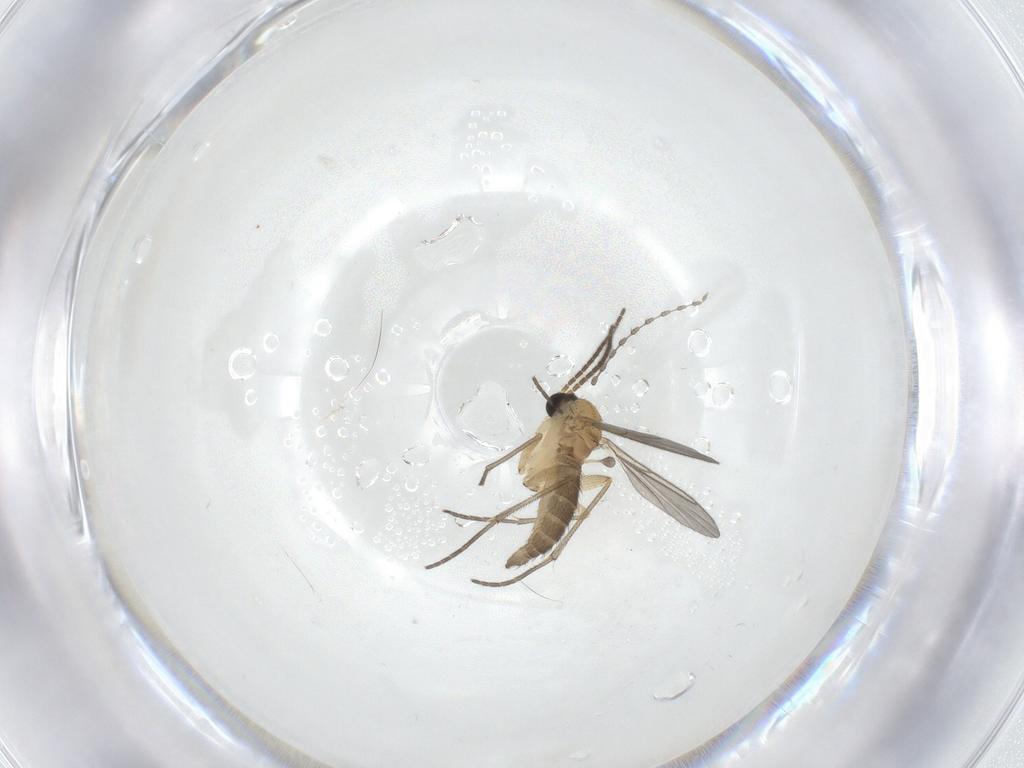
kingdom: Animalia
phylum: Arthropoda
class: Insecta
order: Diptera
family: Sciaridae
